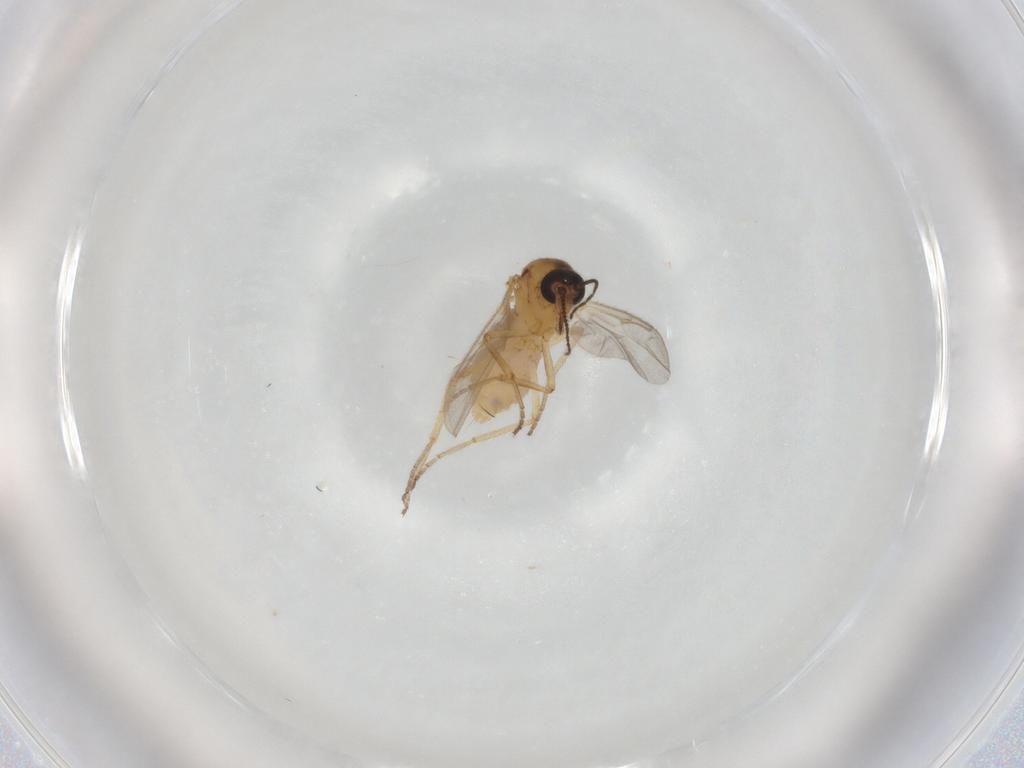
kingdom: Animalia
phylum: Arthropoda
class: Insecta
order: Diptera
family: Ceratopogonidae
